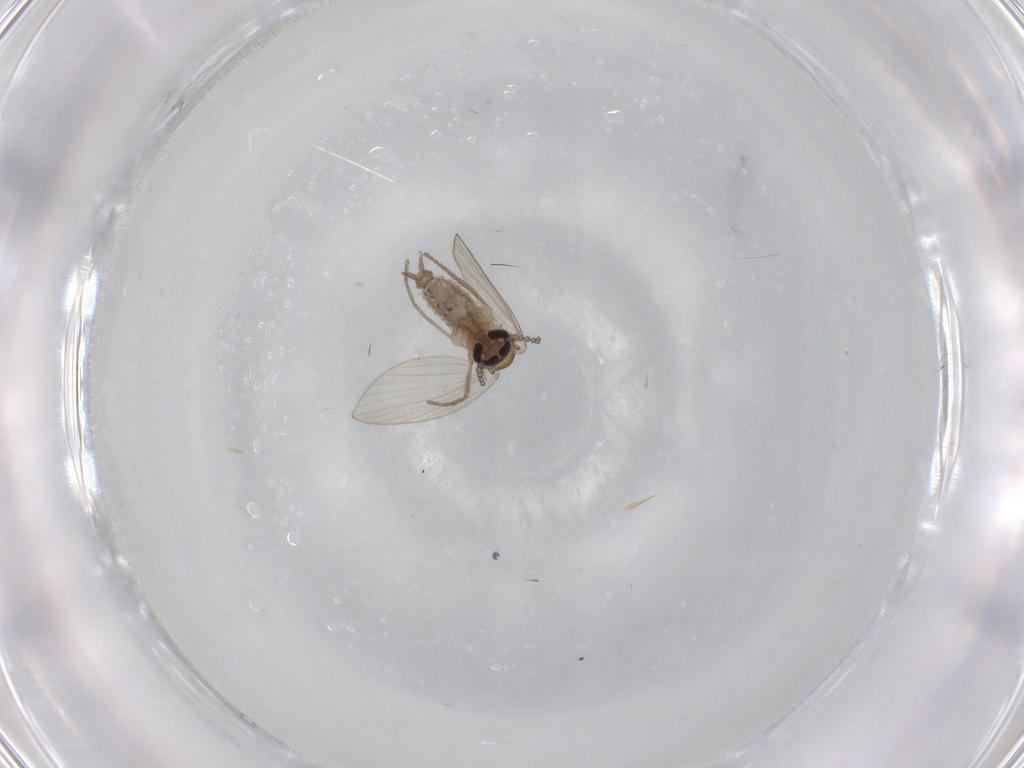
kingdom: Animalia
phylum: Arthropoda
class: Insecta
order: Diptera
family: Cecidomyiidae
